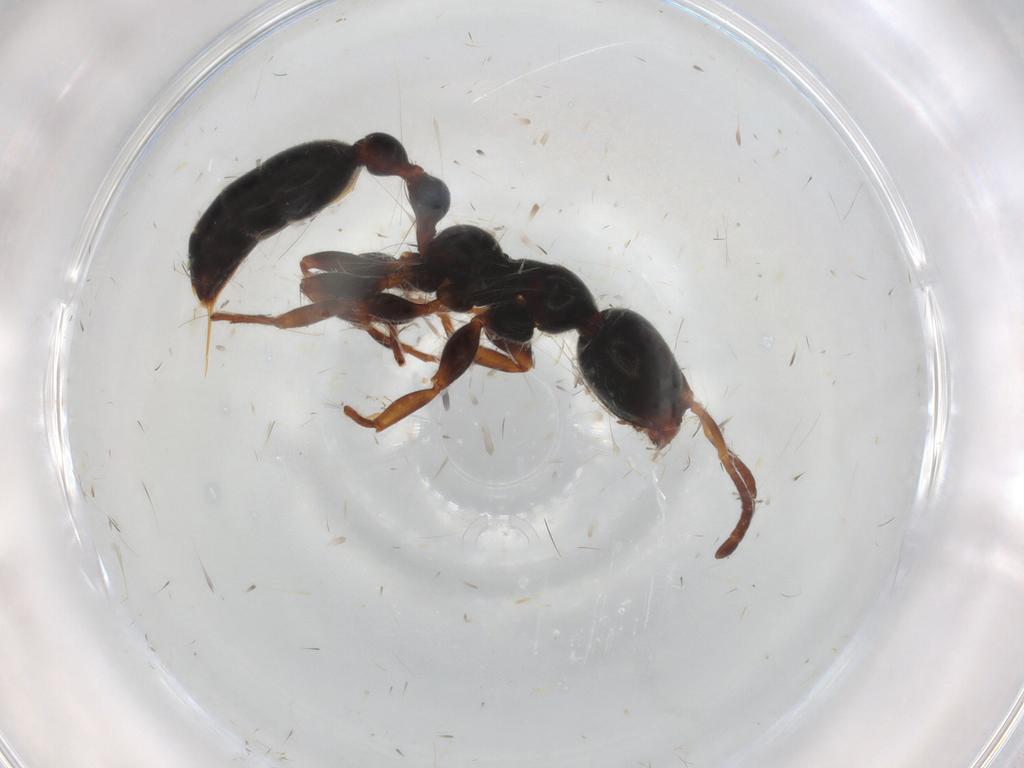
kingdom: Animalia
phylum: Arthropoda
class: Insecta
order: Hymenoptera
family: Formicidae
